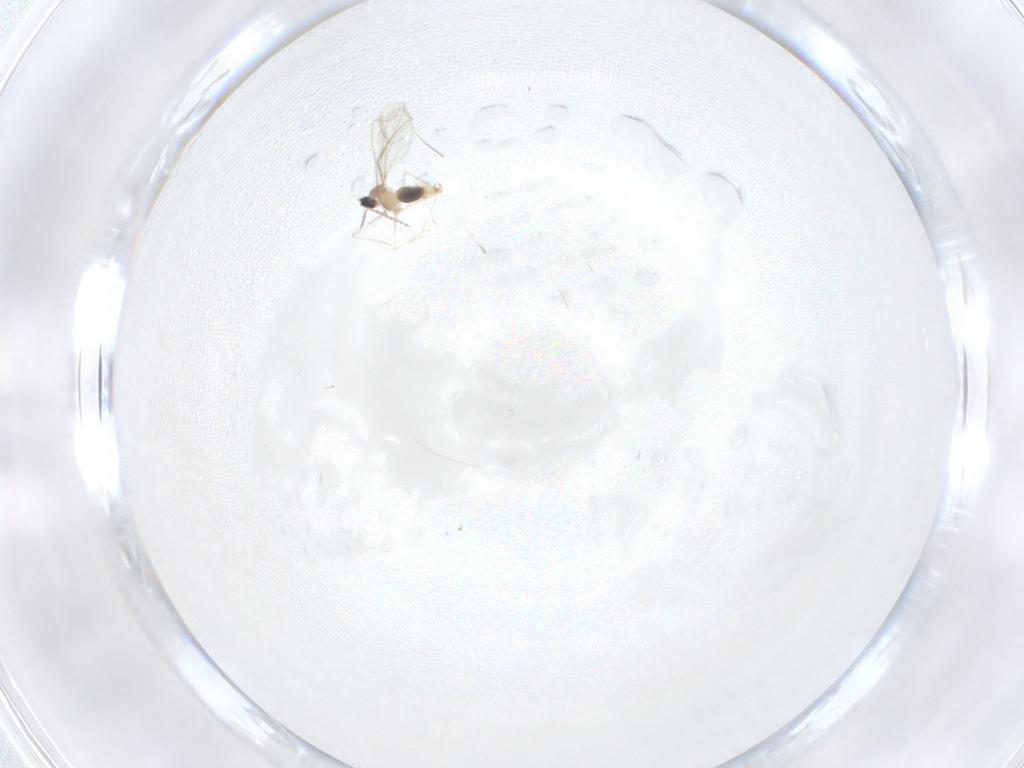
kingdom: Animalia
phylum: Arthropoda
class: Insecta
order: Diptera
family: Cecidomyiidae
